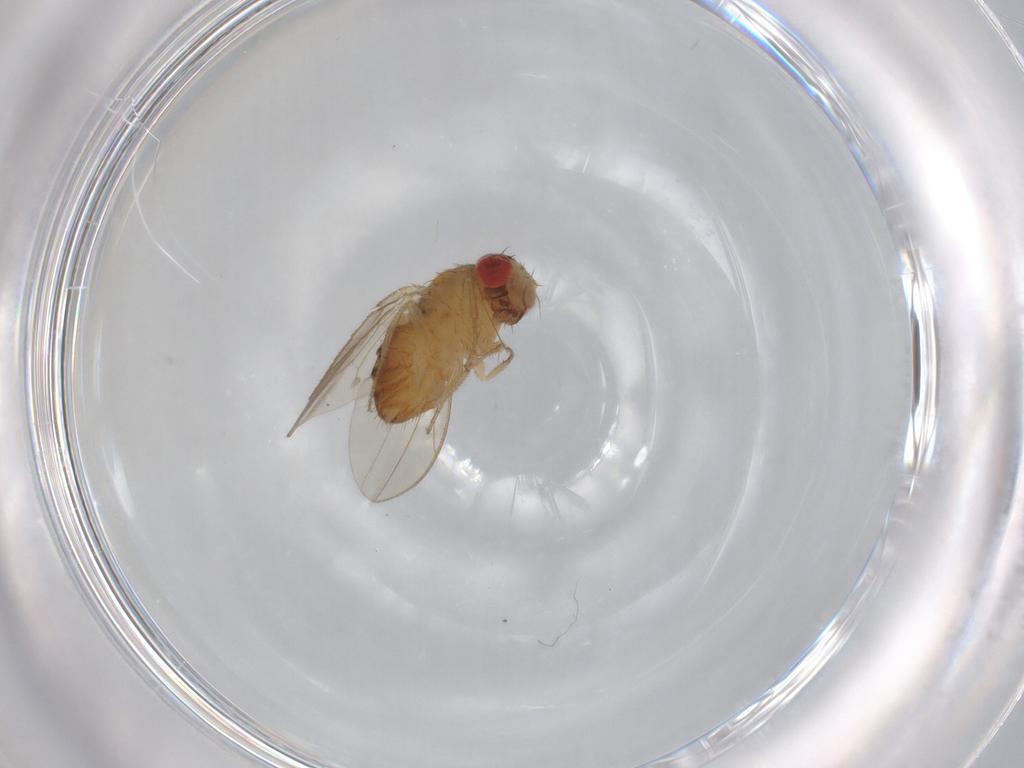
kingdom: Animalia
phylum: Arthropoda
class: Insecta
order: Diptera
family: Drosophilidae
